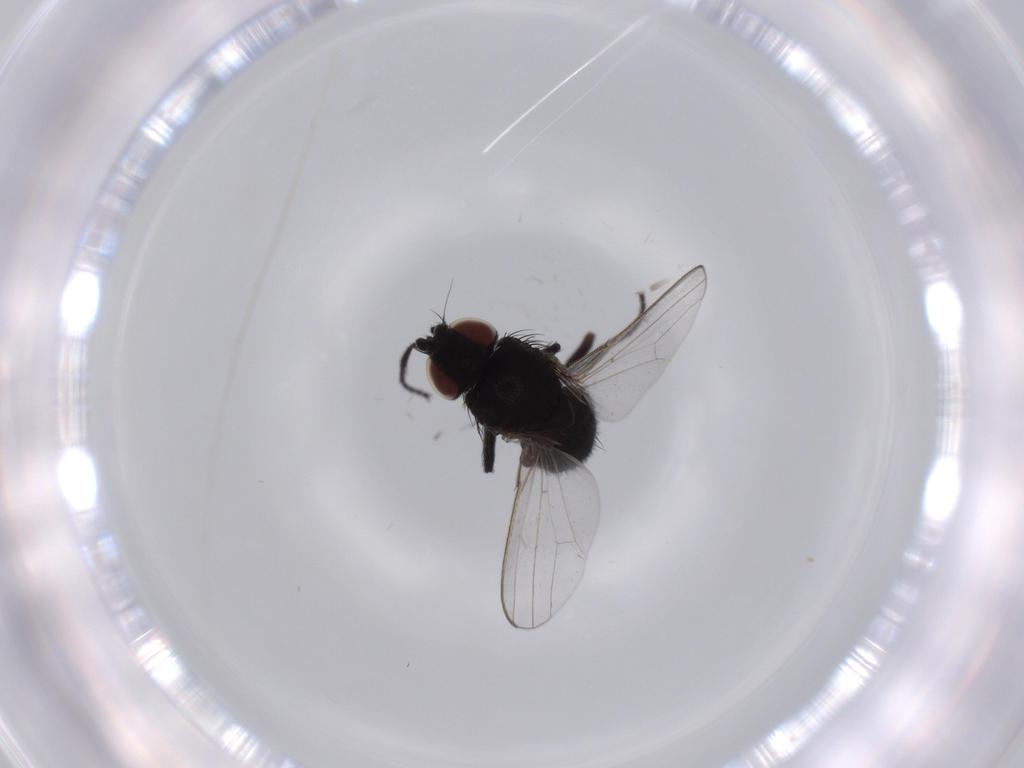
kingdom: Animalia
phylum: Arthropoda
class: Insecta
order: Diptera
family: Milichiidae
